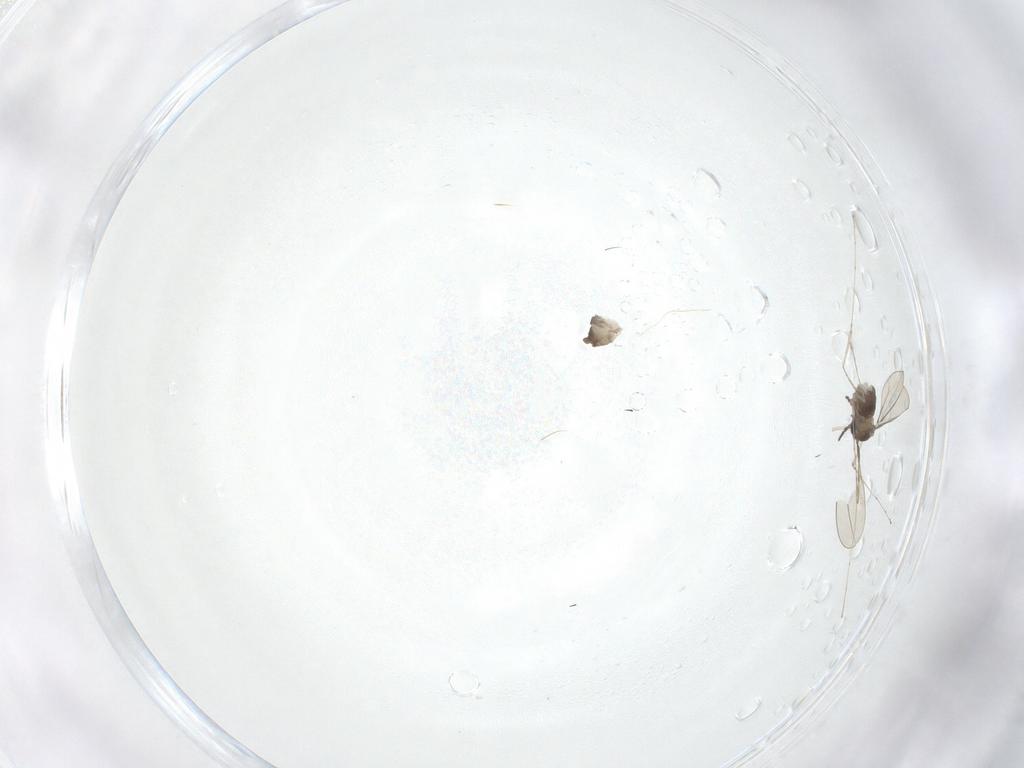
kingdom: Animalia
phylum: Arthropoda
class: Insecta
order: Diptera
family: Cecidomyiidae
